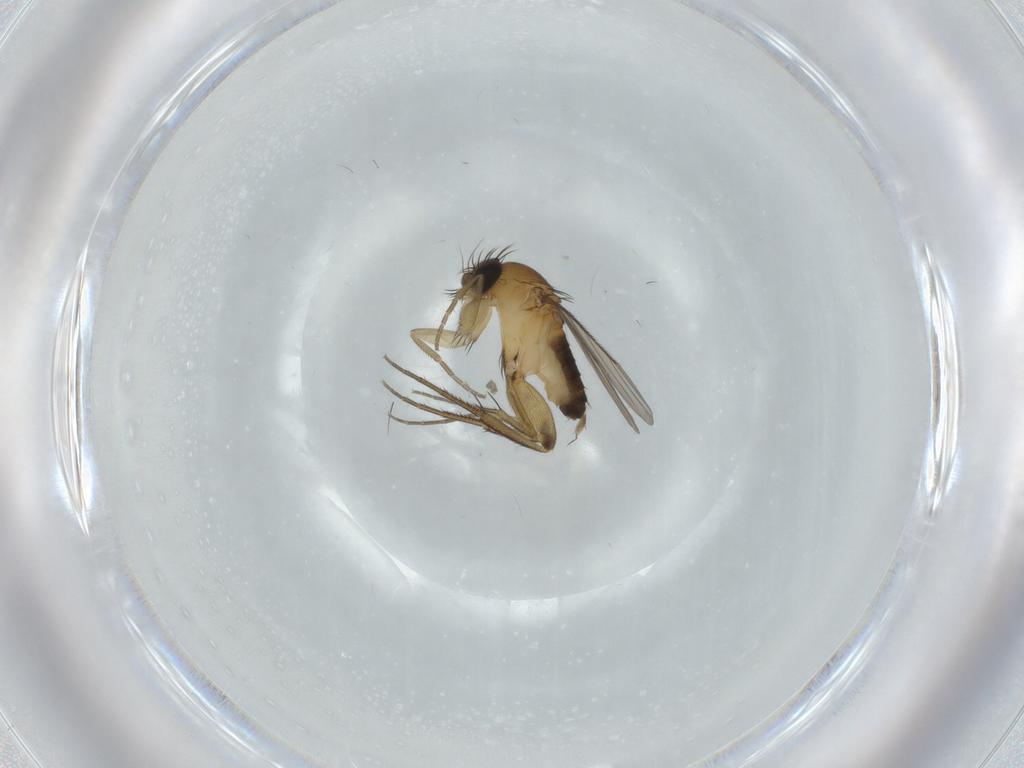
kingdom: Animalia
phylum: Arthropoda
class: Insecta
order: Diptera
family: Phoridae
